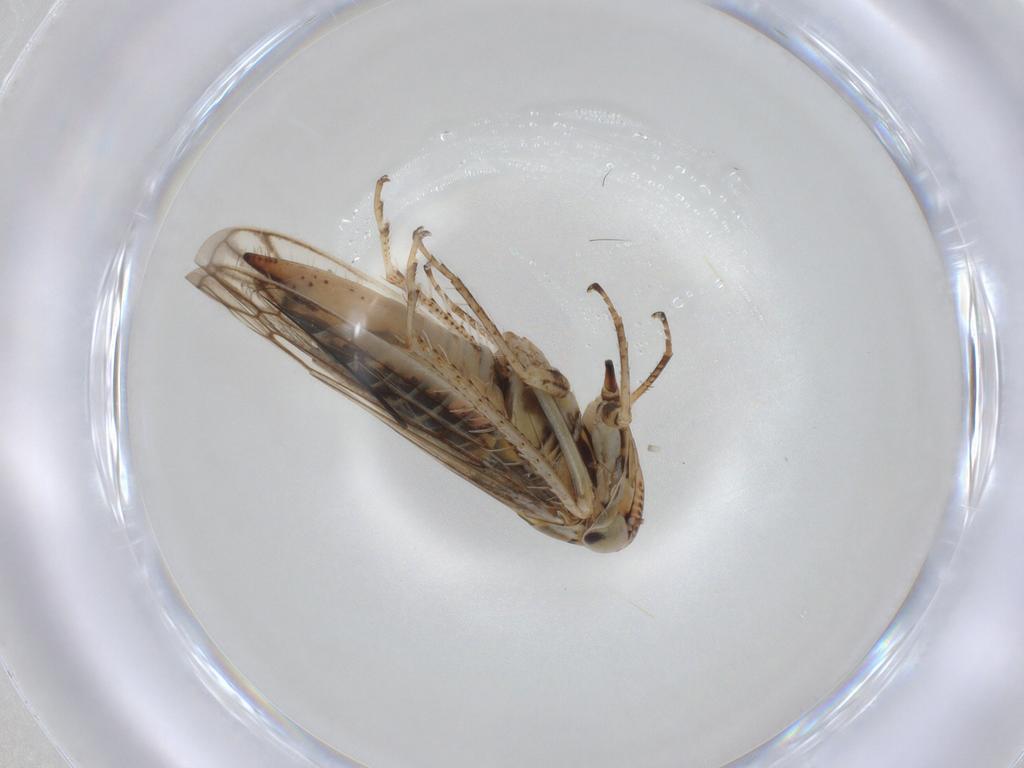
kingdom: Animalia
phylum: Arthropoda
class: Insecta
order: Hemiptera
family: Cicadellidae
